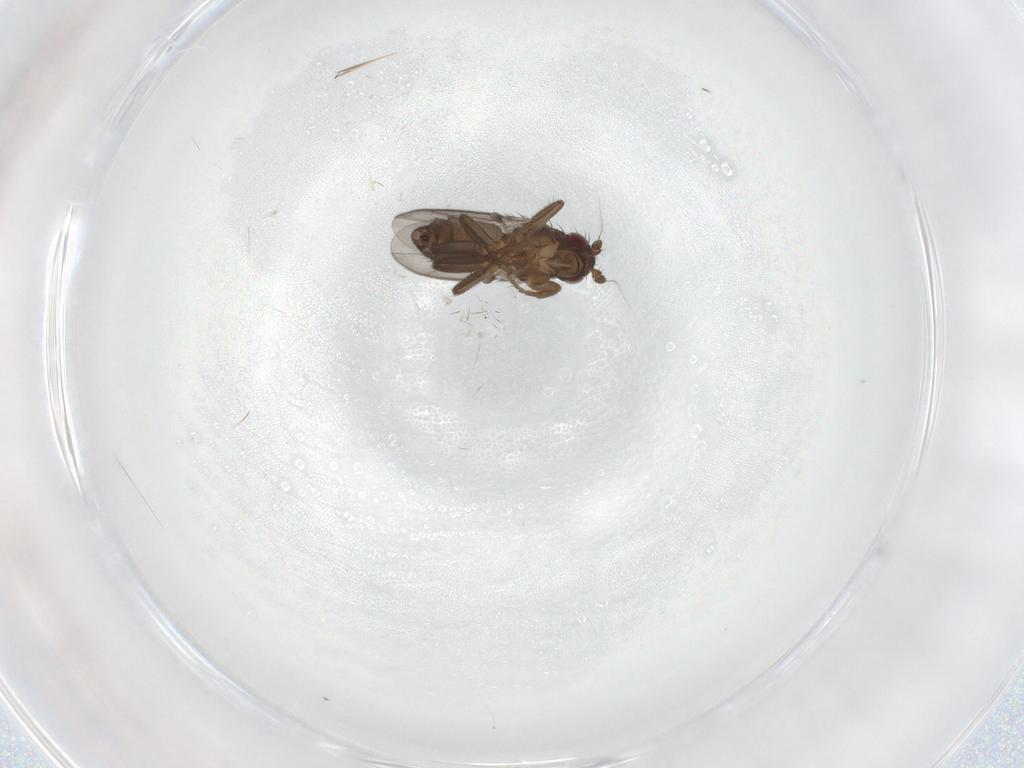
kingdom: Animalia
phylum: Arthropoda
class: Insecta
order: Diptera
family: Cecidomyiidae
